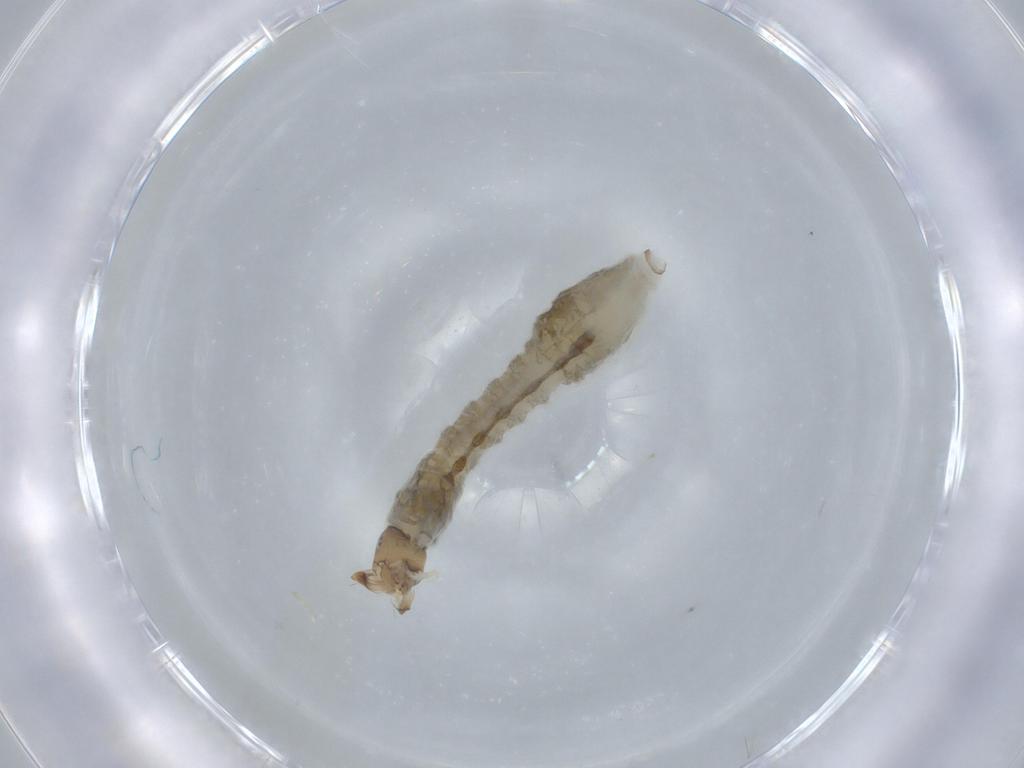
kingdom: Animalia
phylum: Arthropoda
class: Insecta
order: Diptera
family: Simuliidae
